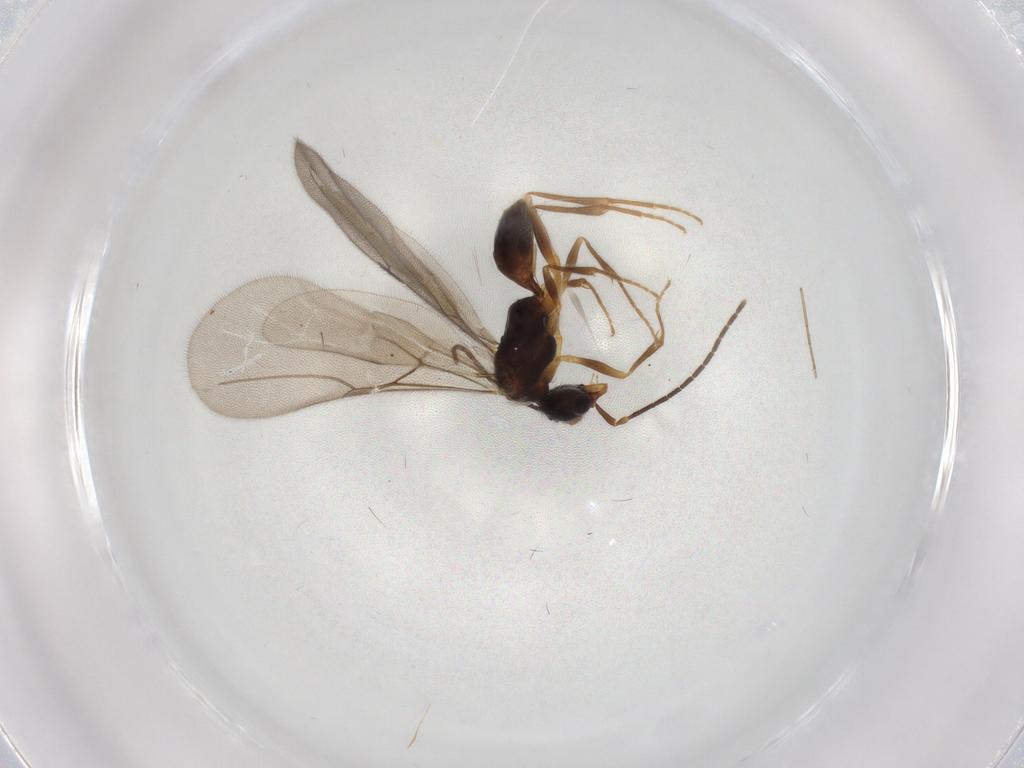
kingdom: Animalia
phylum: Arthropoda
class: Insecta
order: Hymenoptera
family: Bethylidae
